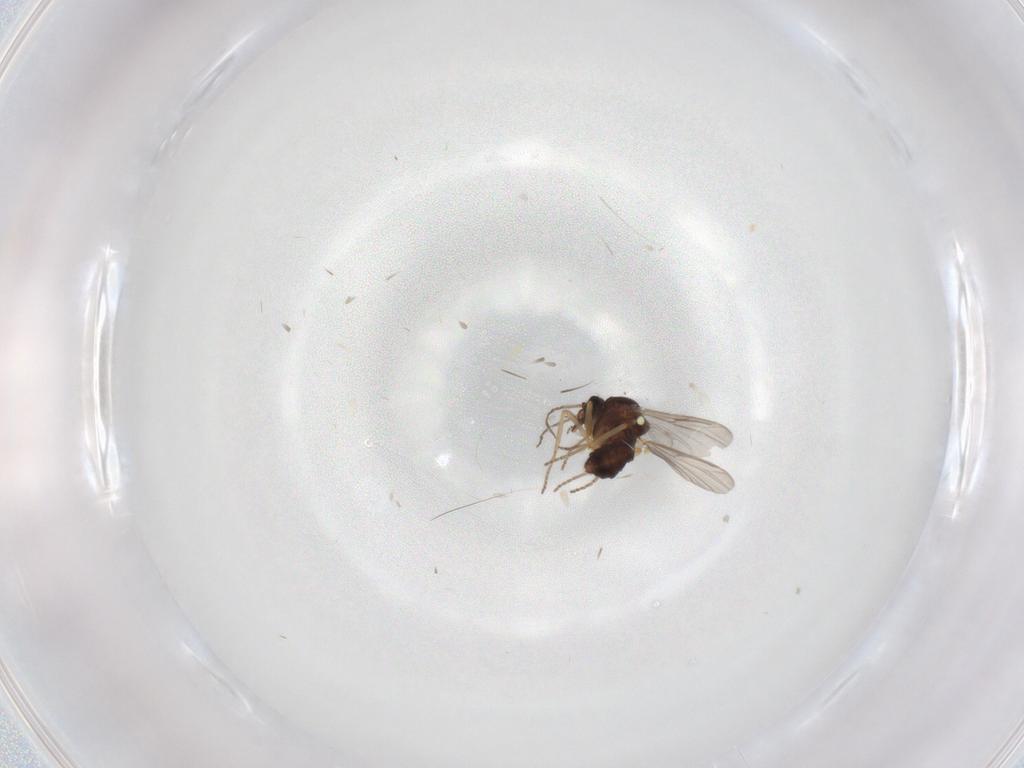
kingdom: Animalia
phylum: Arthropoda
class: Insecta
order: Diptera
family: Ceratopogonidae
